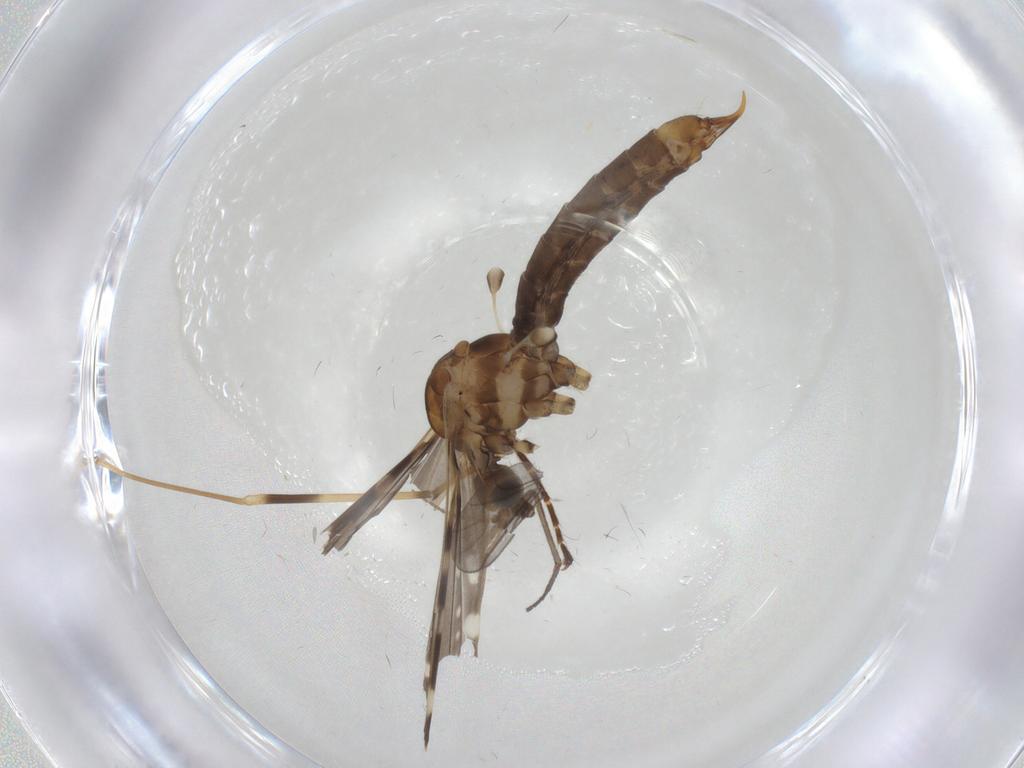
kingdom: Animalia
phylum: Arthropoda
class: Insecta
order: Diptera
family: Limoniidae
